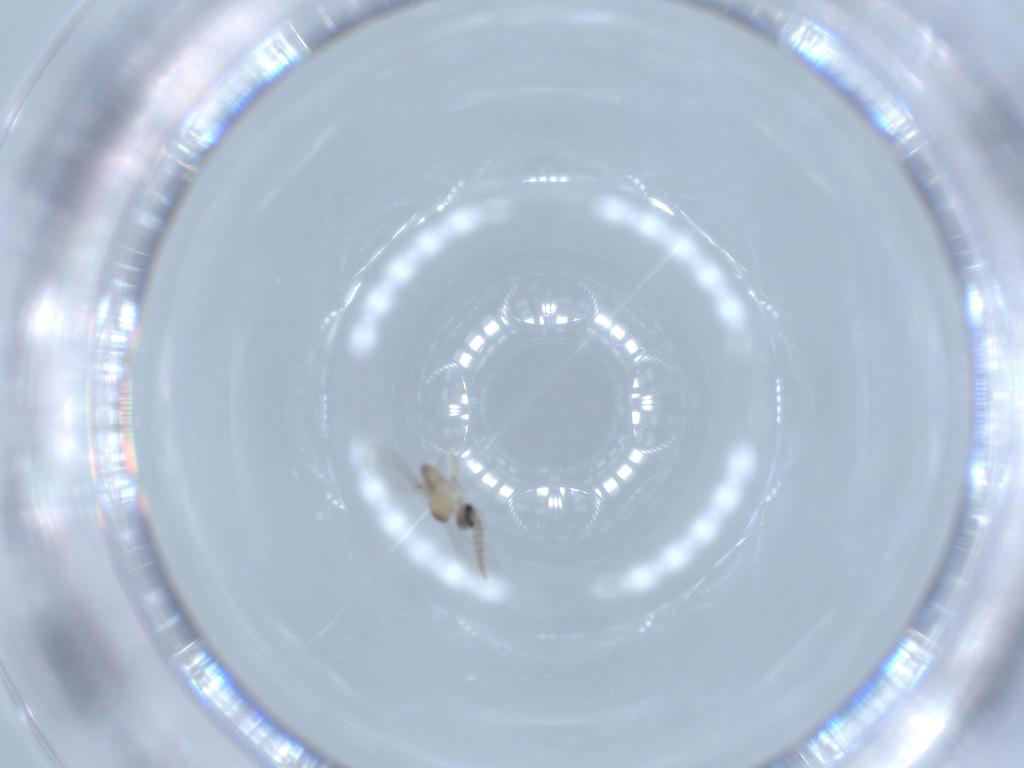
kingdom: Animalia
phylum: Arthropoda
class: Insecta
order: Diptera
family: Cecidomyiidae
